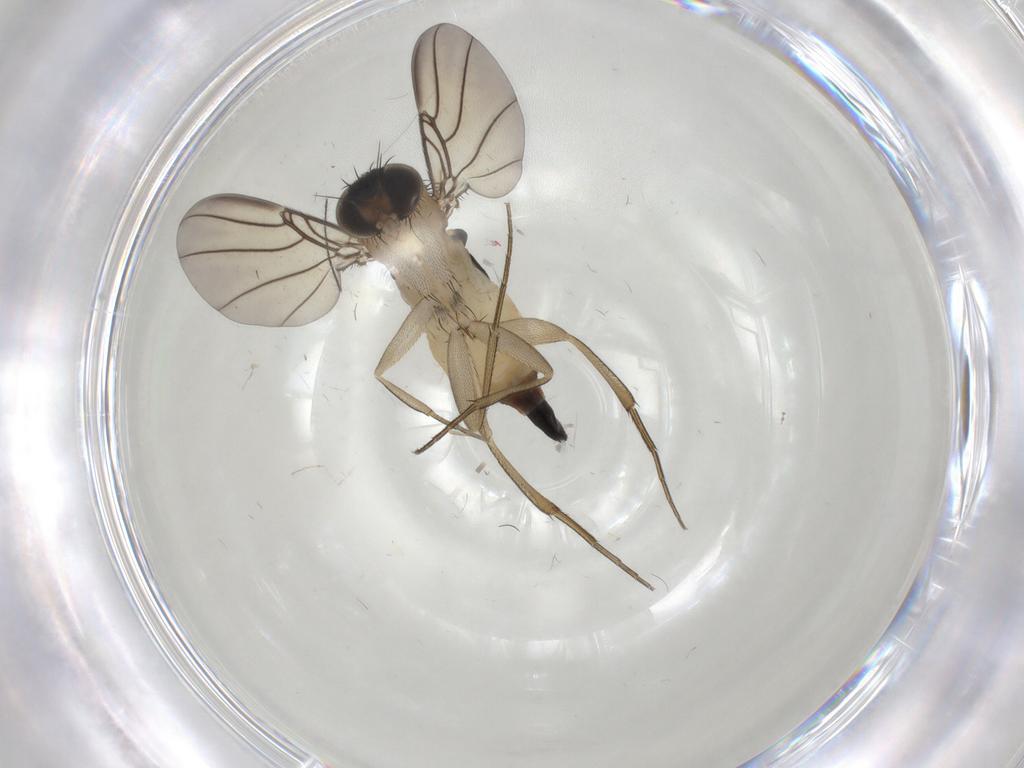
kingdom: Animalia
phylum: Arthropoda
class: Insecta
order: Diptera
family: Phoridae
